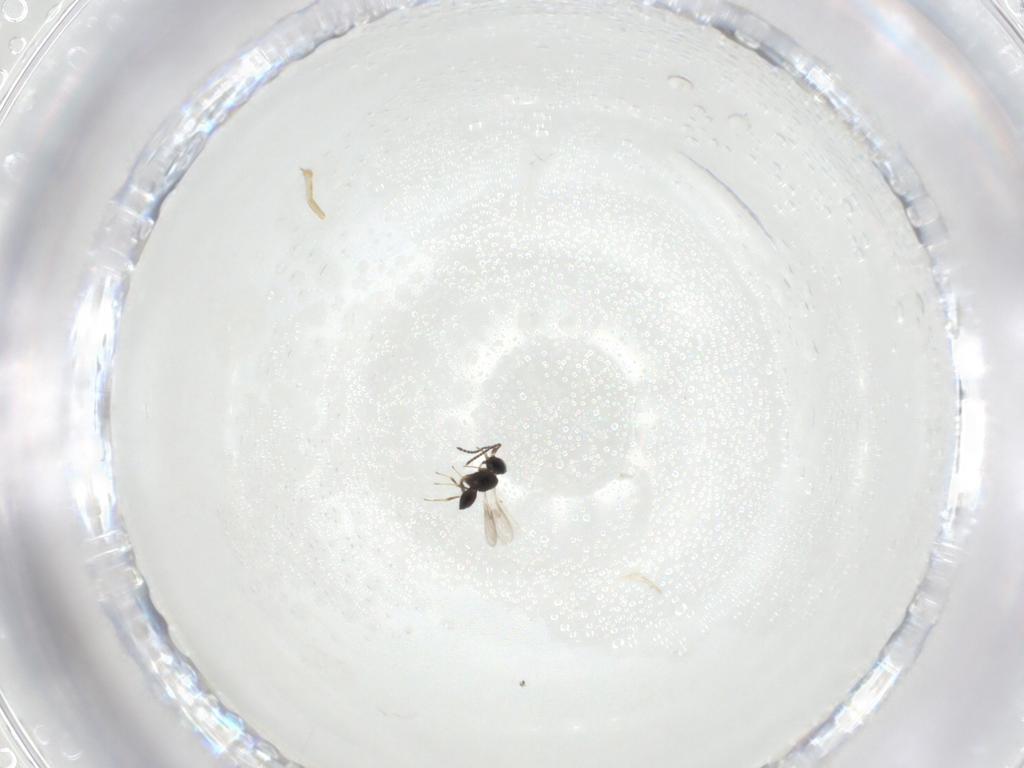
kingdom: Animalia
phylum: Arthropoda
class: Insecta
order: Hymenoptera
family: Scelionidae
